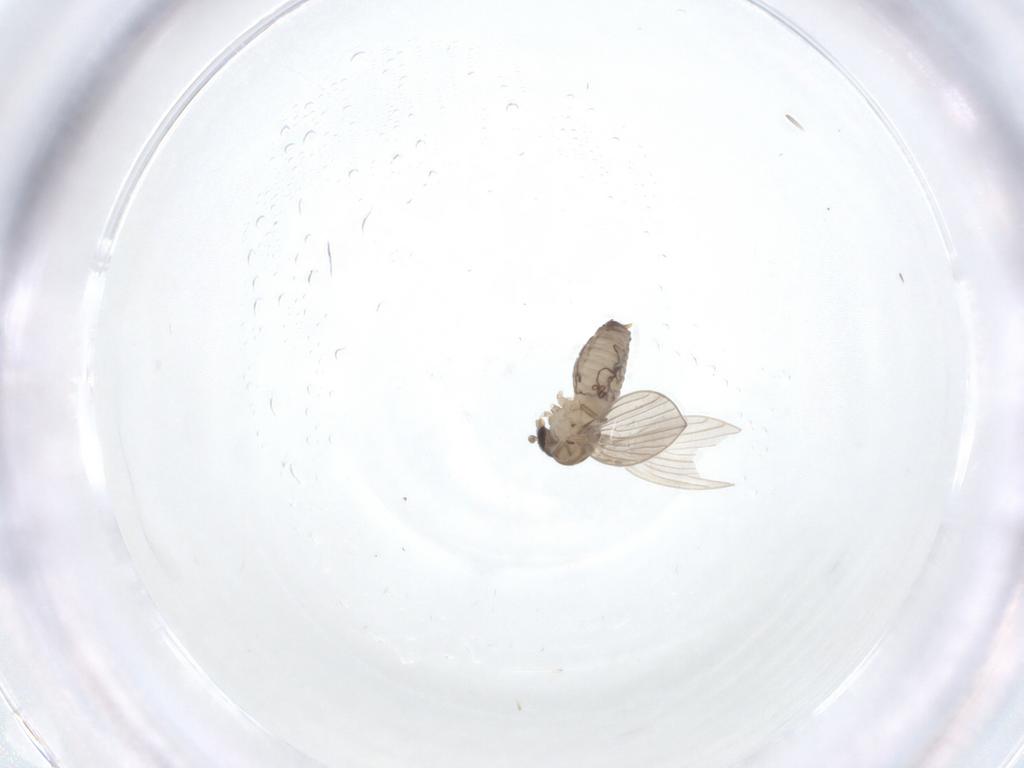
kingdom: Animalia
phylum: Arthropoda
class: Insecta
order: Diptera
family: Psychodidae
